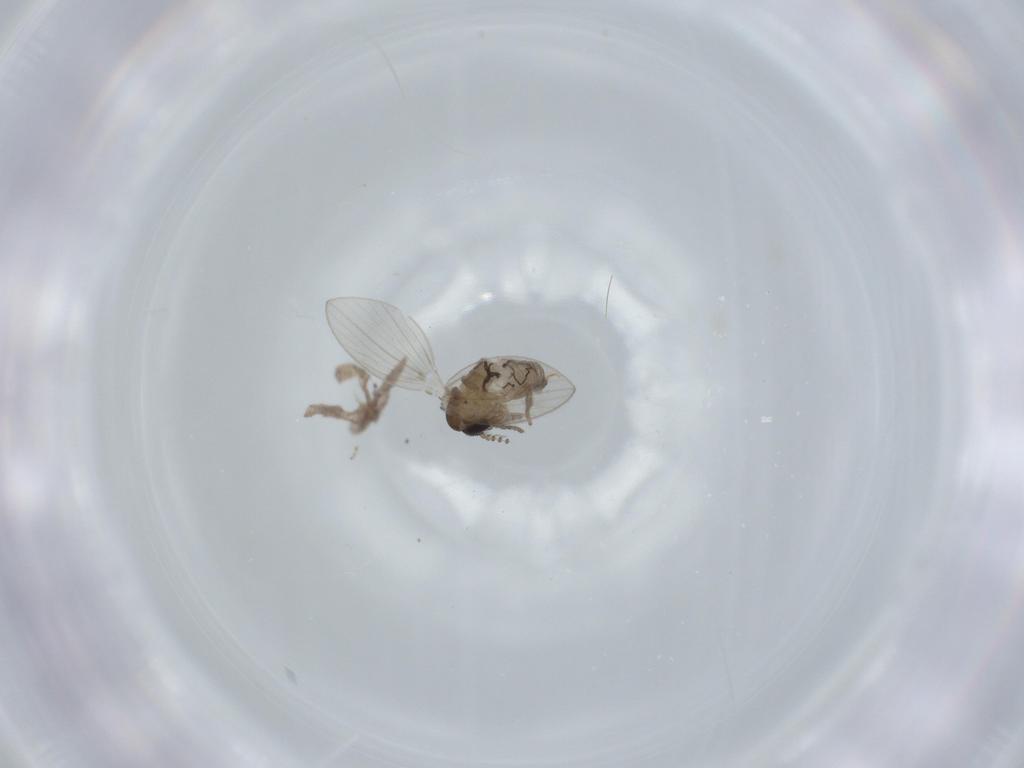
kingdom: Animalia
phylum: Arthropoda
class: Insecta
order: Diptera
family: Psychodidae
